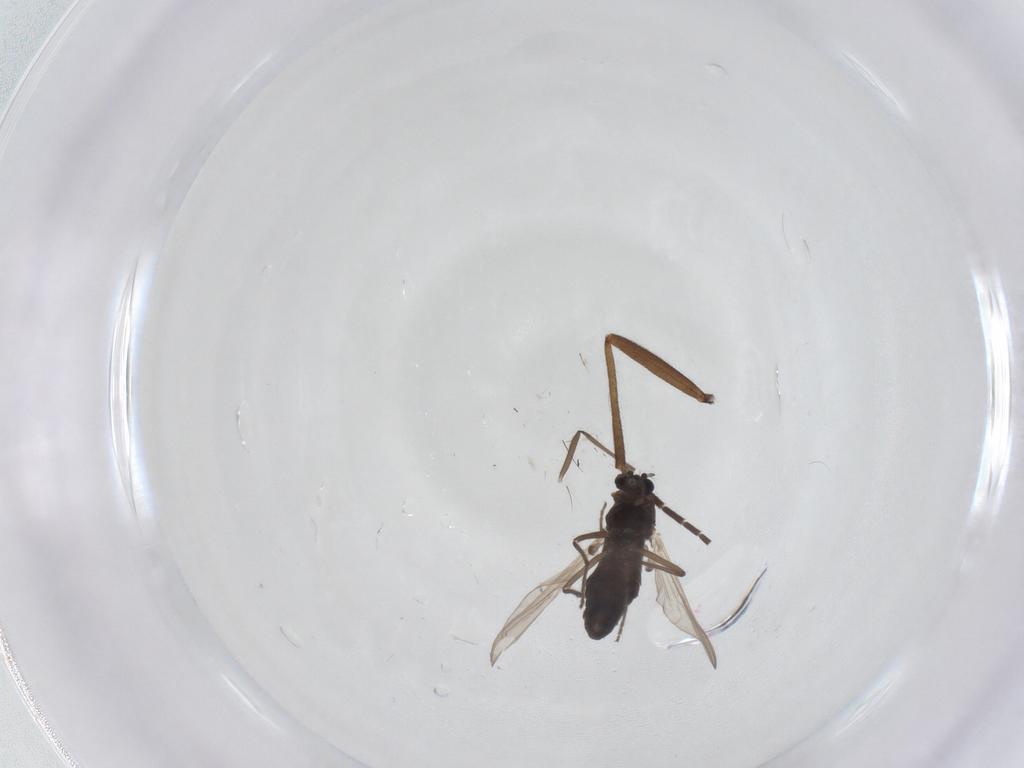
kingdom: Animalia
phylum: Arthropoda
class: Insecta
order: Diptera
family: Sciaridae
